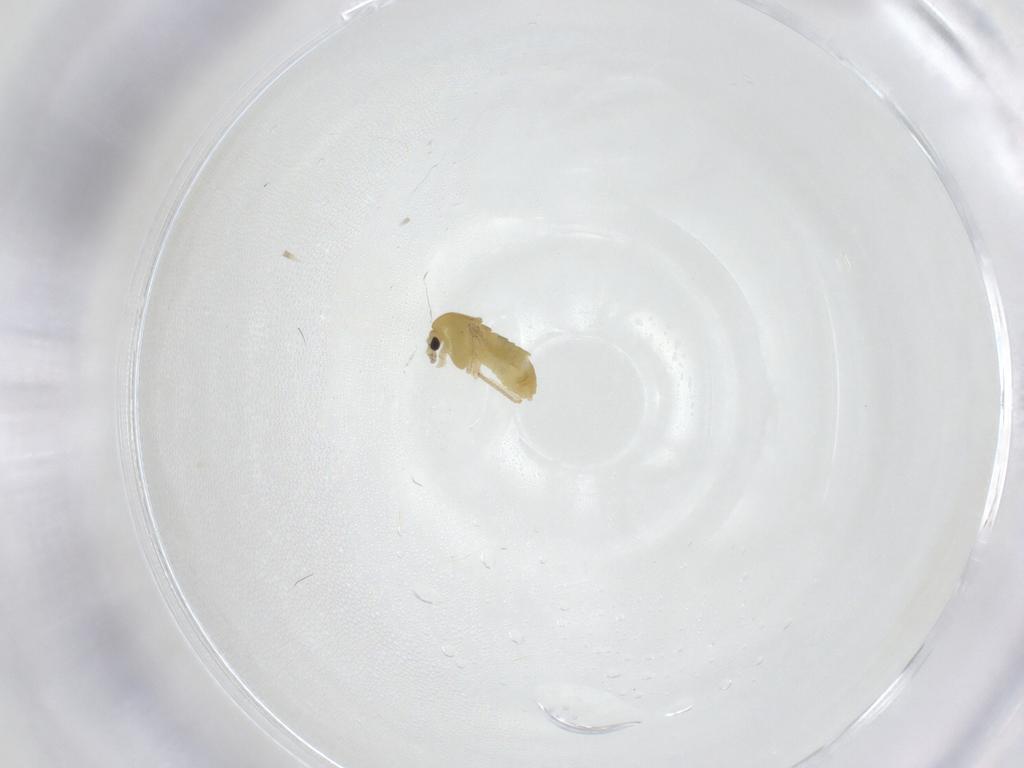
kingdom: Animalia
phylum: Arthropoda
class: Insecta
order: Diptera
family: Chironomidae
